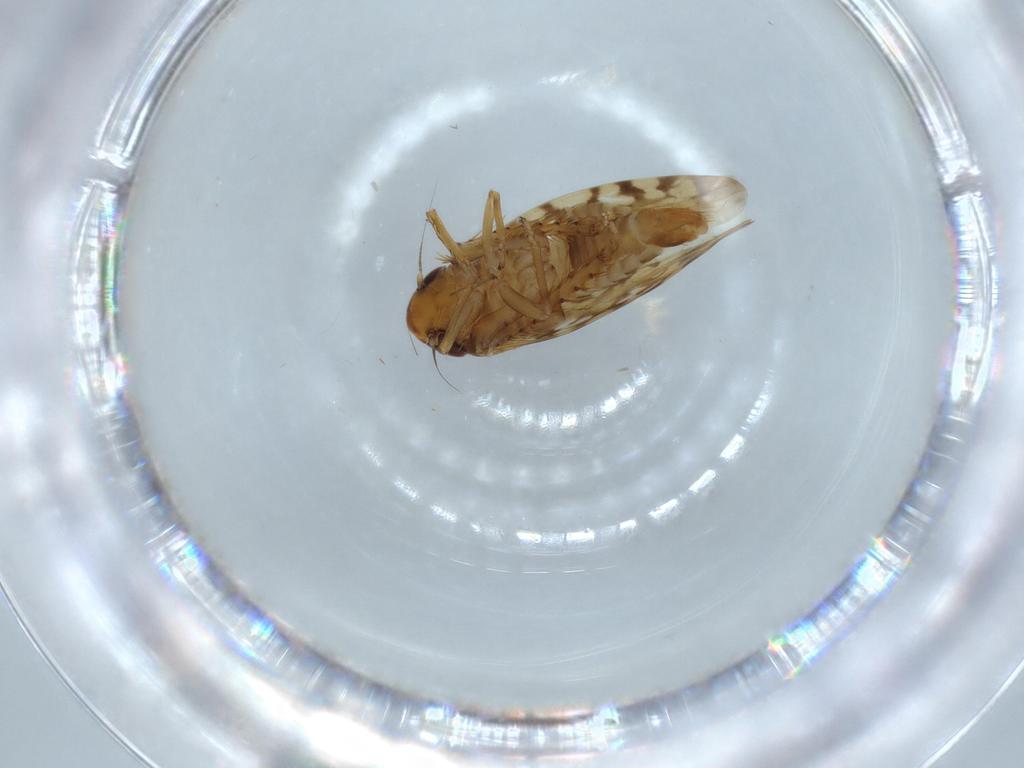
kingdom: Animalia
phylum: Arthropoda
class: Insecta
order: Hemiptera
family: Cicadellidae
